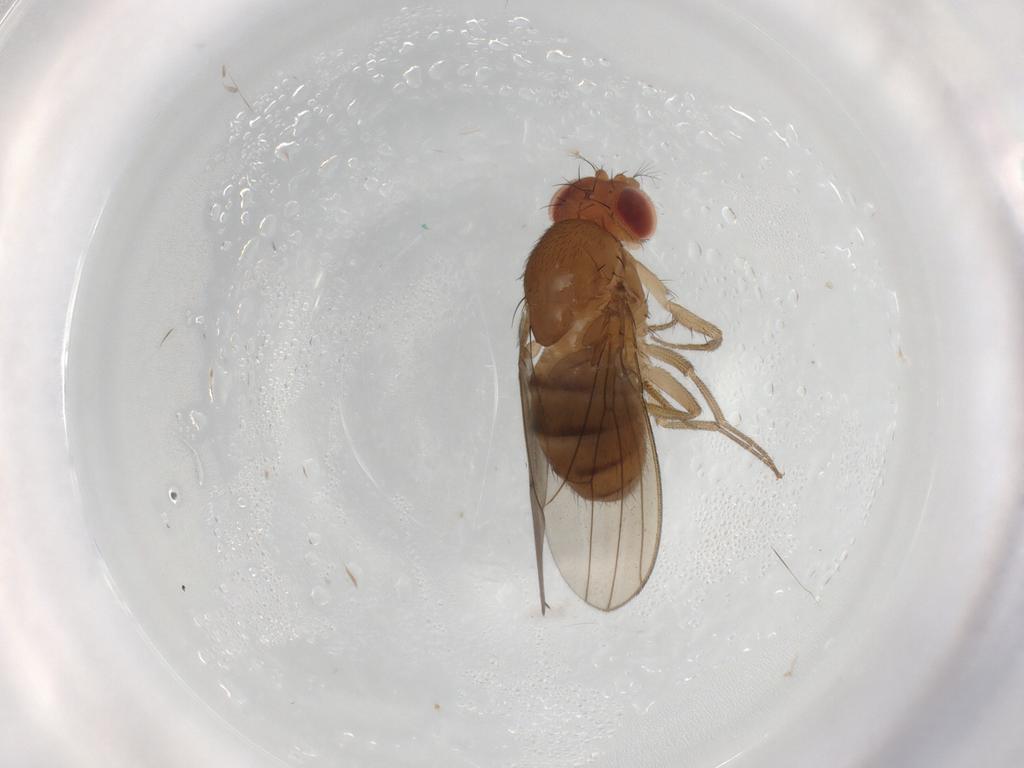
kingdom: Animalia
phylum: Arthropoda
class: Insecta
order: Diptera
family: Drosophilidae
